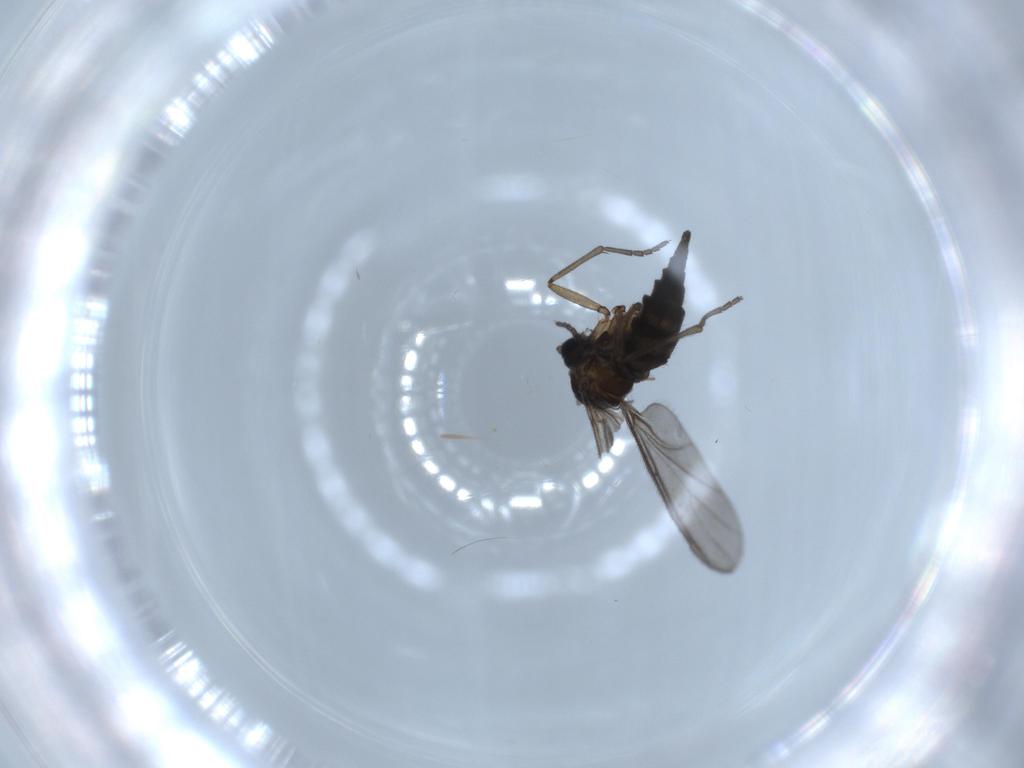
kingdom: Animalia
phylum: Arthropoda
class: Insecta
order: Diptera
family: Sciaridae
